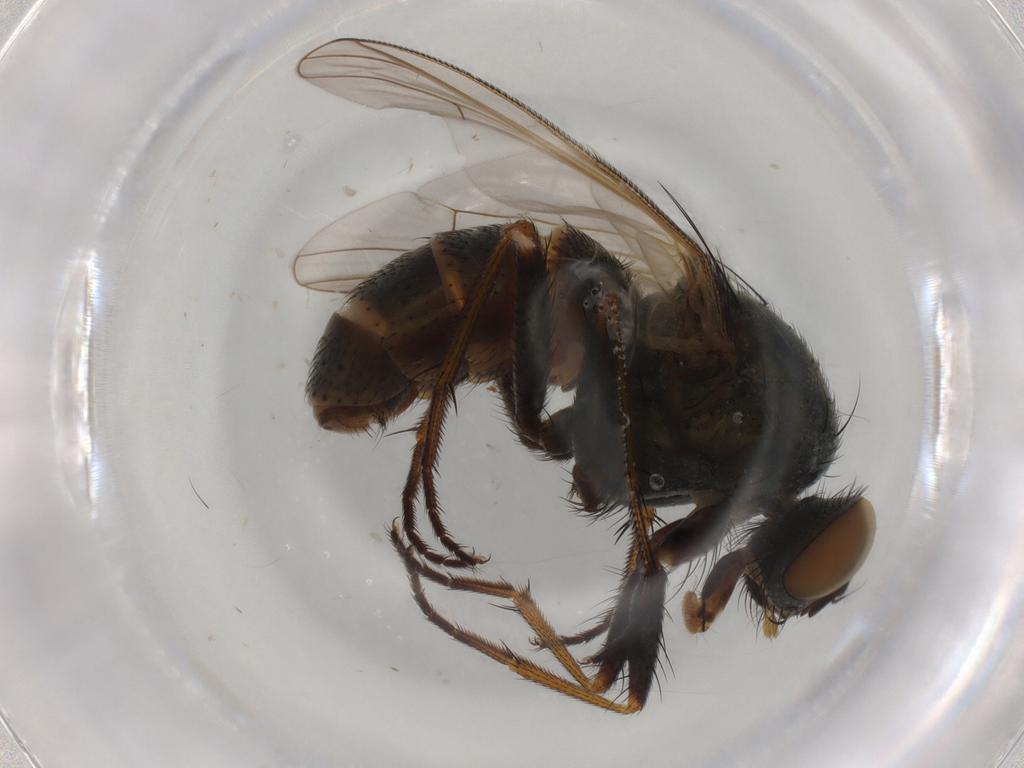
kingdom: Animalia
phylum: Arthropoda
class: Insecta
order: Diptera
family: Muscidae
